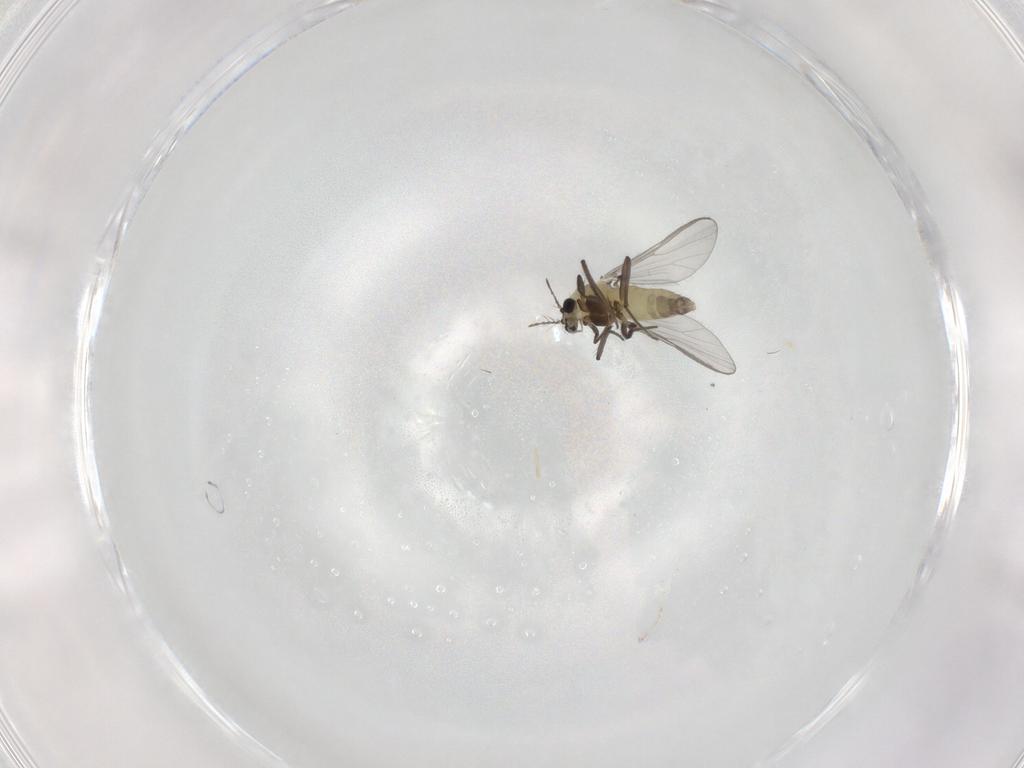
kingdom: Animalia
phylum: Arthropoda
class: Insecta
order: Diptera
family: Chironomidae
